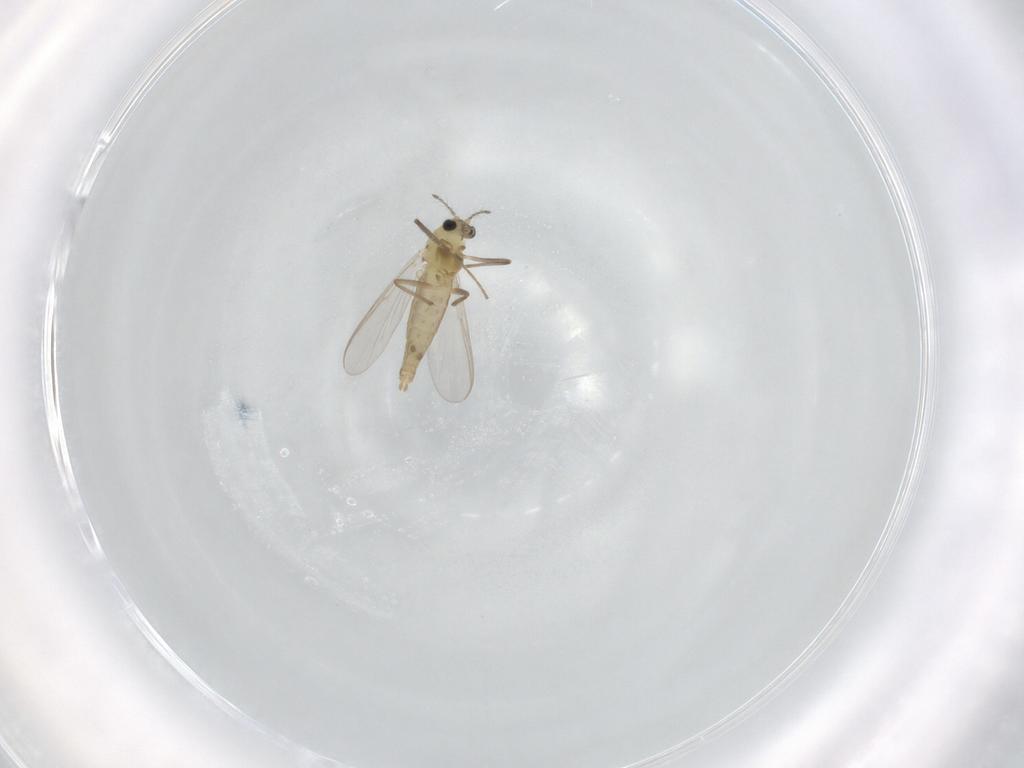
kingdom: Animalia
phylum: Arthropoda
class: Insecta
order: Diptera
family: Chironomidae
